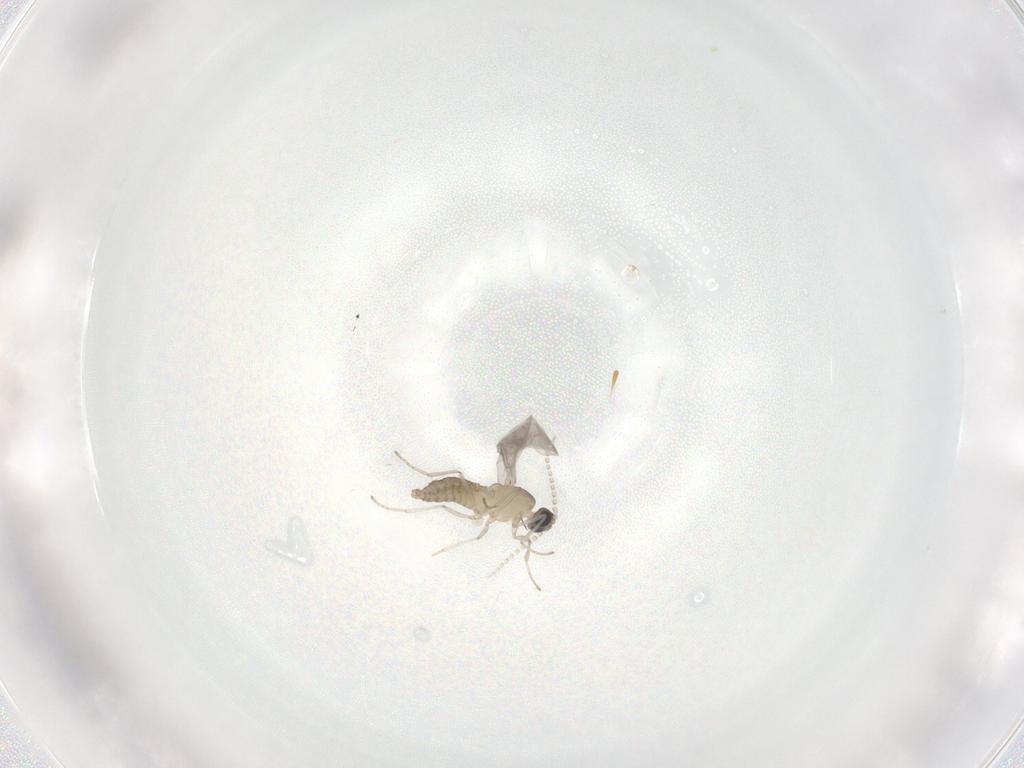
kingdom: Animalia
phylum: Arthropoda
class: Insecta
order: Diptera
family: Cecidomyiidae
